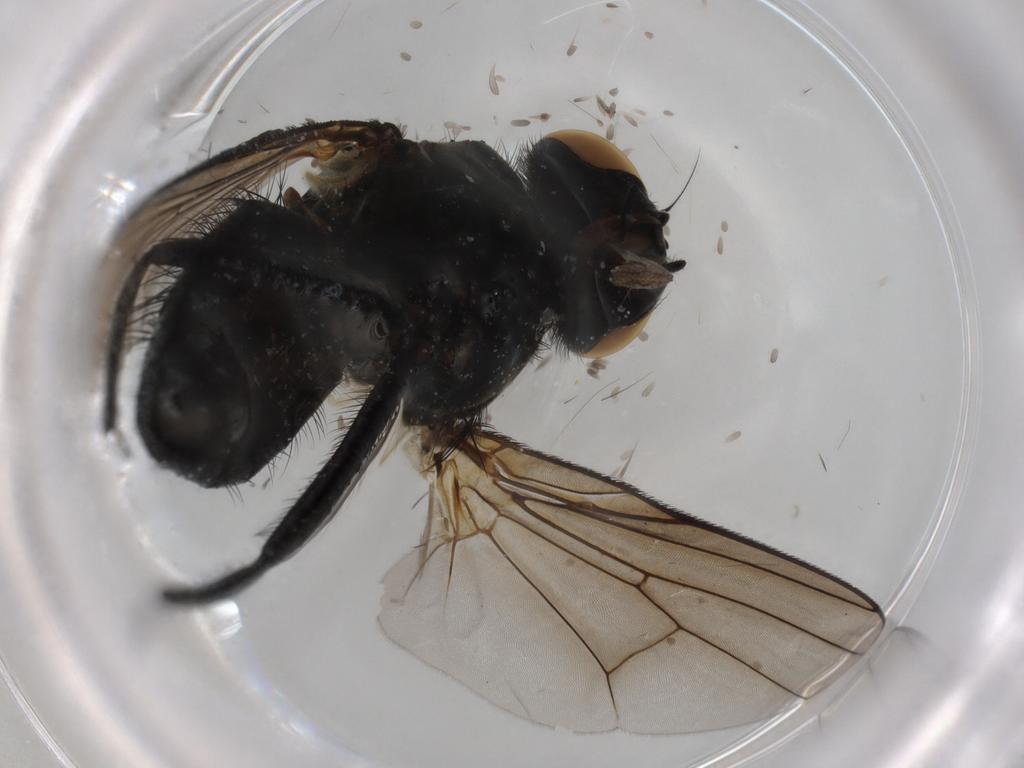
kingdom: Animalia
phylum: Arthropoda
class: Insecta
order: Diptera
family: Muscidae
